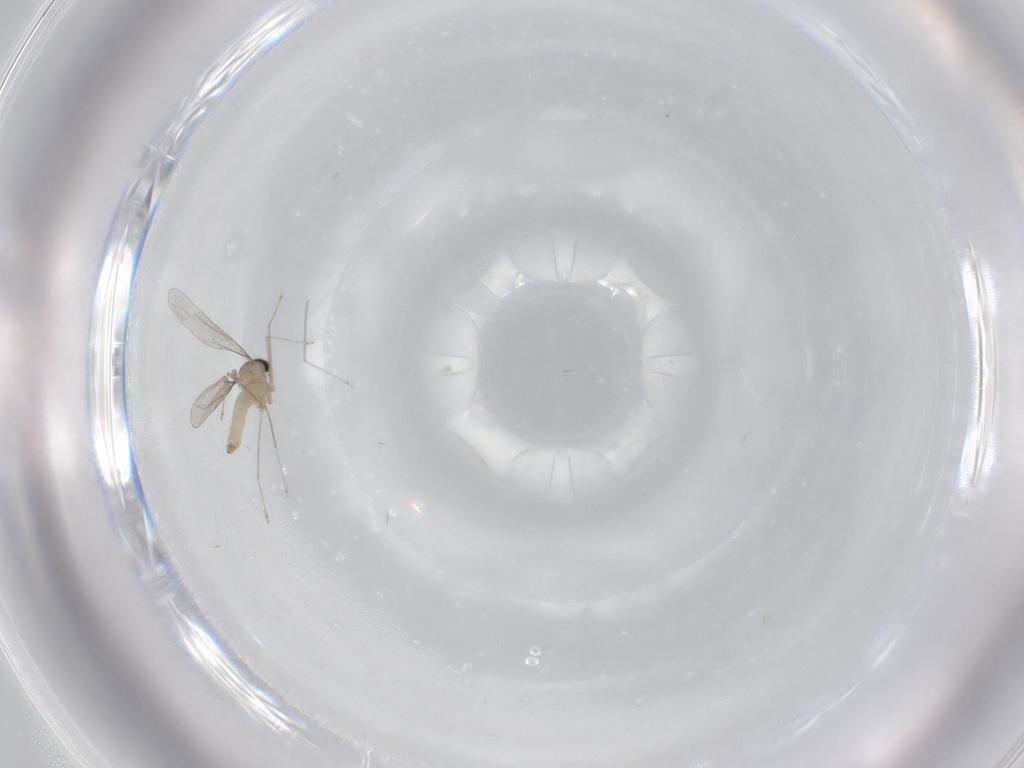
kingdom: Animalia
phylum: Arthropoda
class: Insecta
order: Diptera
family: Cecidomyiidae
